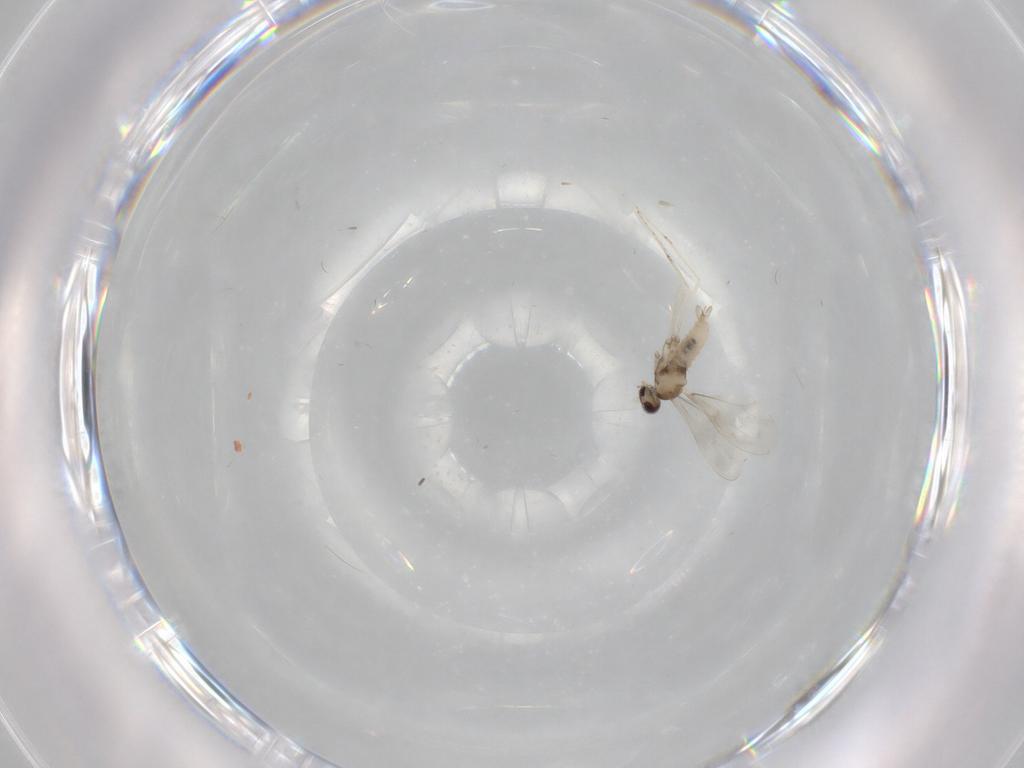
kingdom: Animalia
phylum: Arthropoda
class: Insecta
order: Diptera
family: Cecidomyiidae
